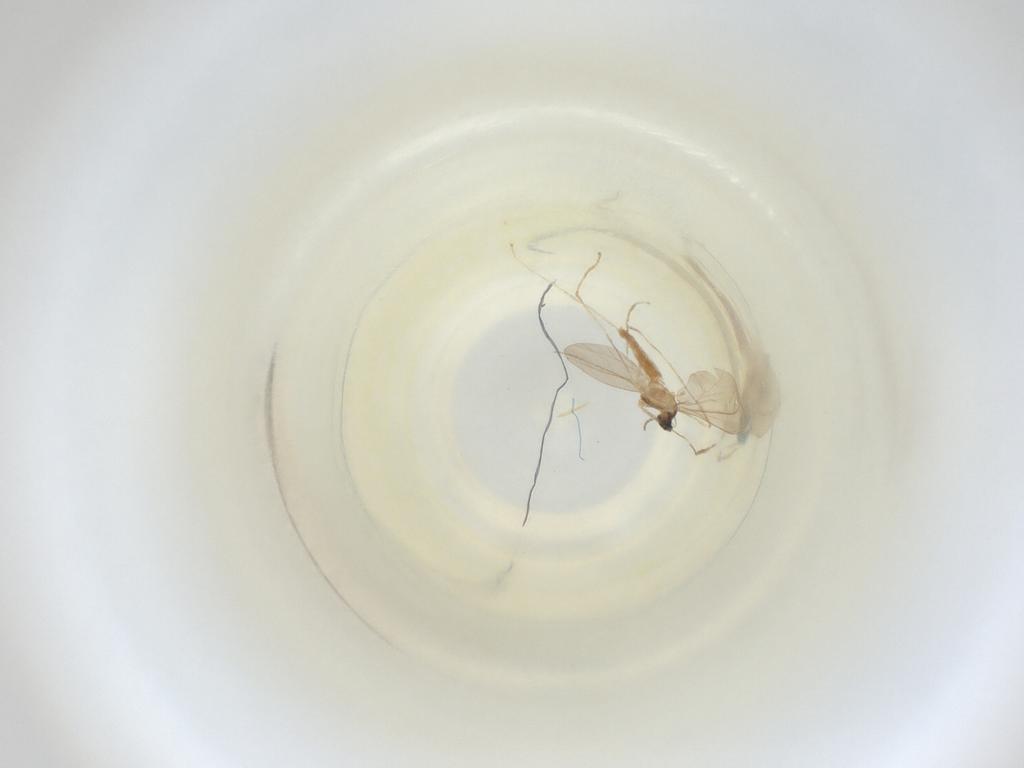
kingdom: Animalia
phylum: Arthropoda
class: Insecta
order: Diptera
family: Cecidomyiidae
